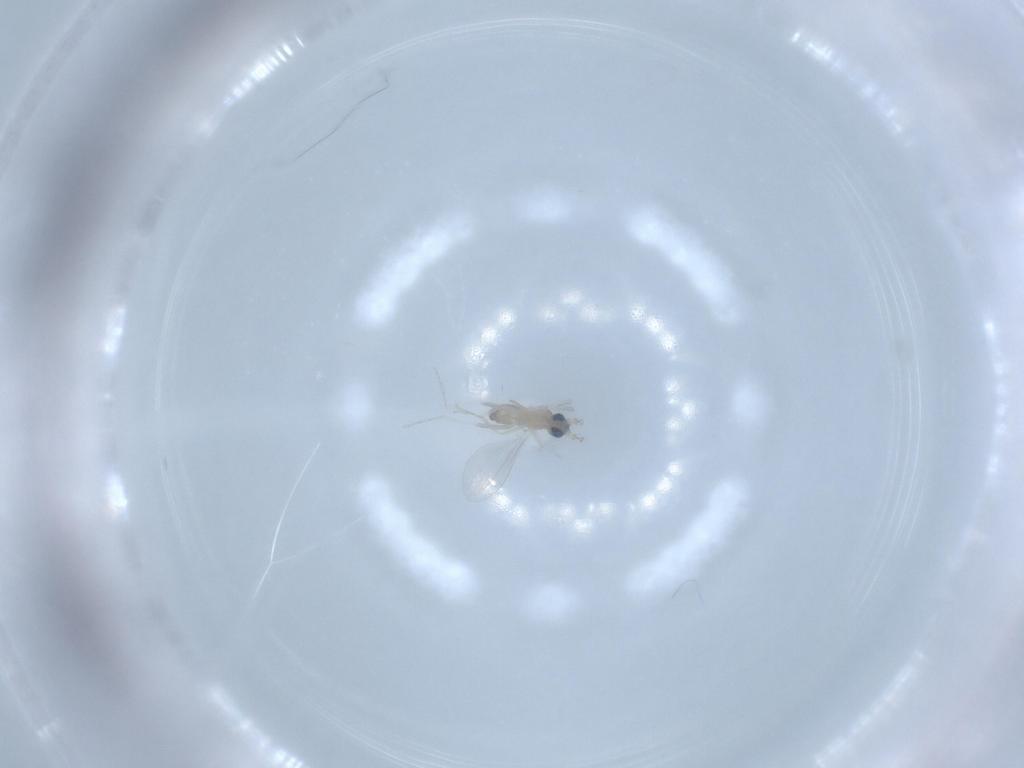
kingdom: Animalia
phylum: Arthropoda
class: Insecta
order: Diptera
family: Cecidomyiidae
